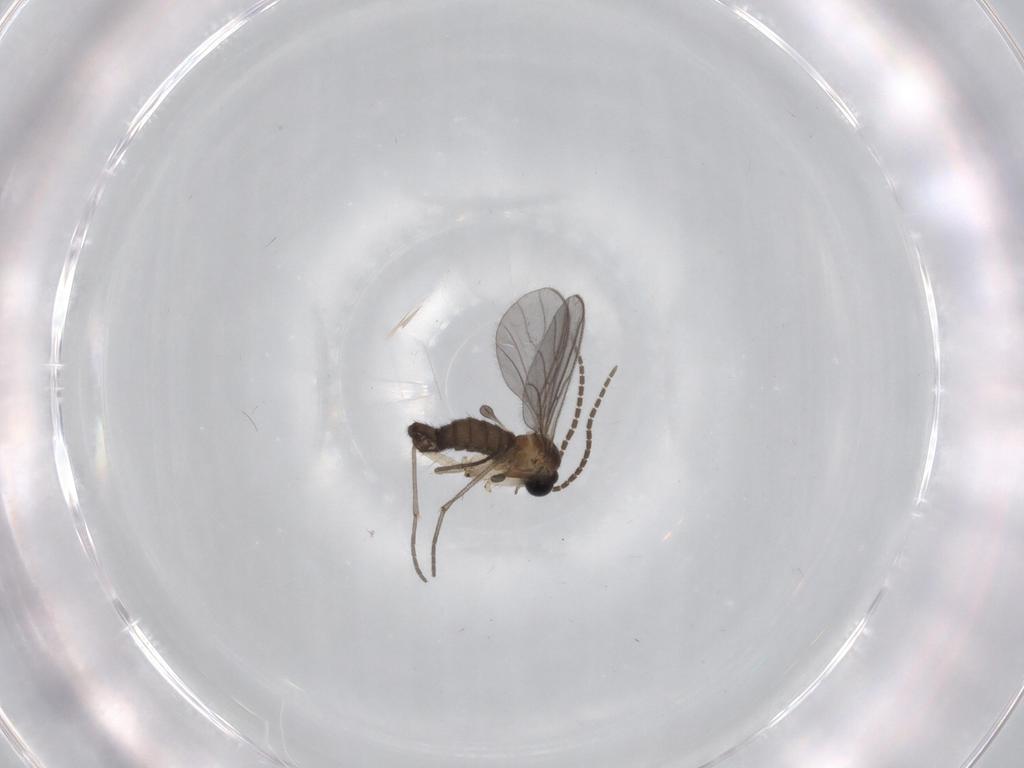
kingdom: Animalia
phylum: Arthropoda
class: Insecta
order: Diptera
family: Sciaridae
